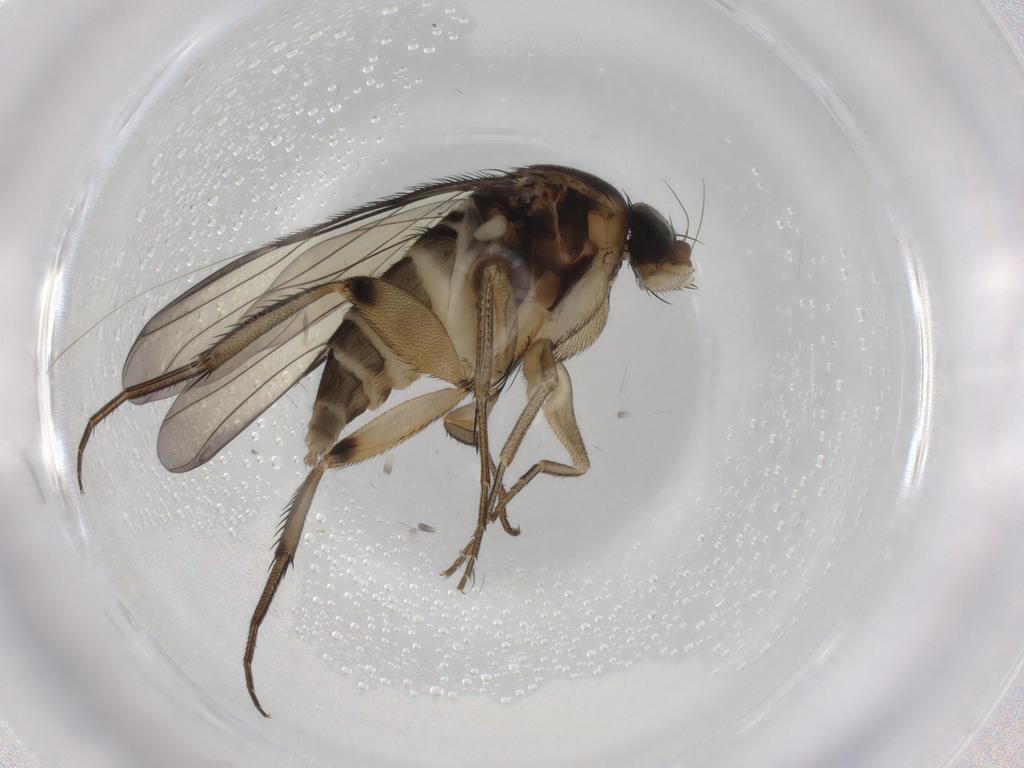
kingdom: Animalia
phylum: Arthropoda
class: Insecta
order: Diptera
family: Phoridae
